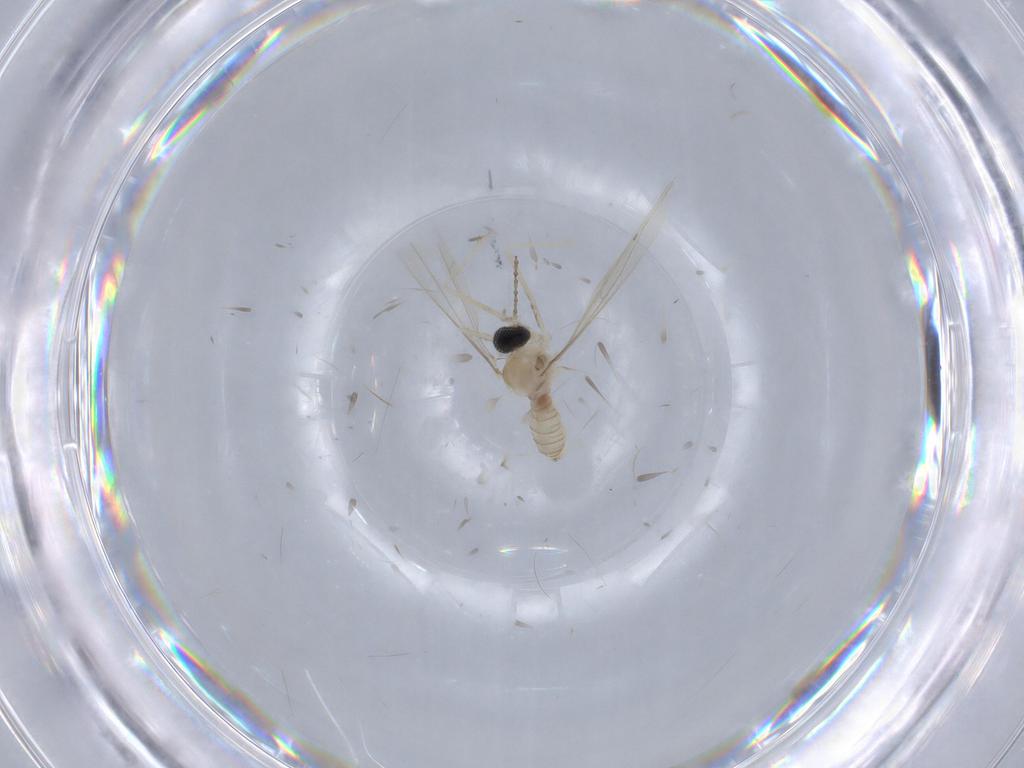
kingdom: Animalia
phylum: Arthropoda
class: Insecta
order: Diptera
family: Cecidomyiidae
